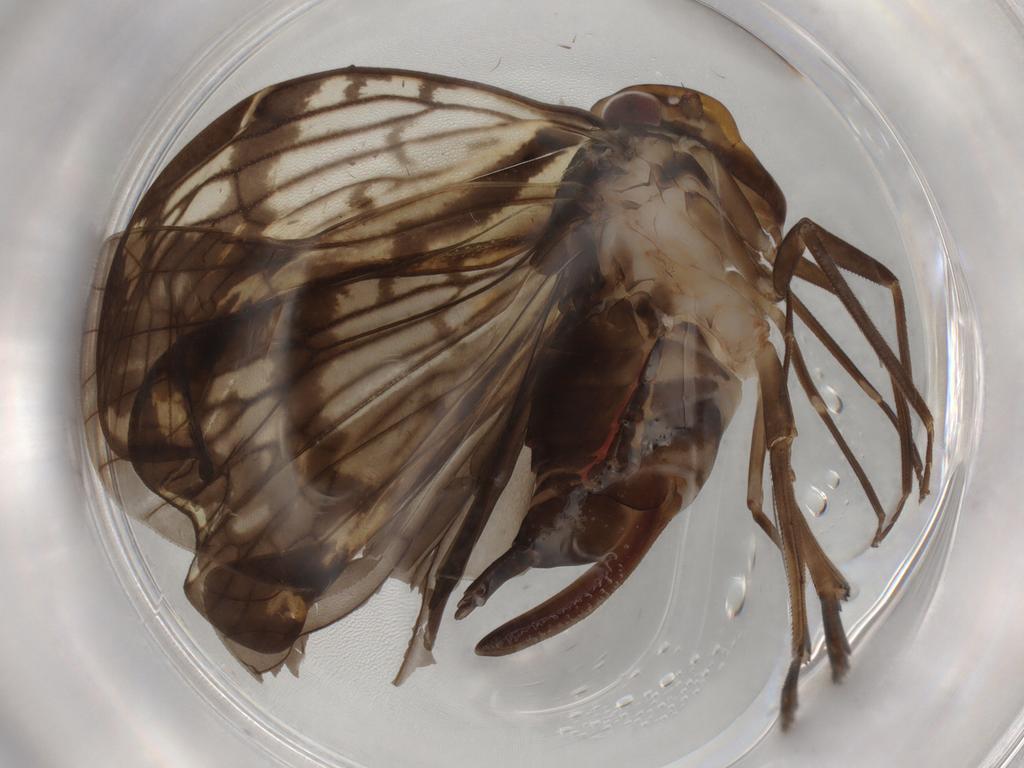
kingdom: Animalia
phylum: Arthropoda
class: Insecta
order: Hemiptera
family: Cixiidae
